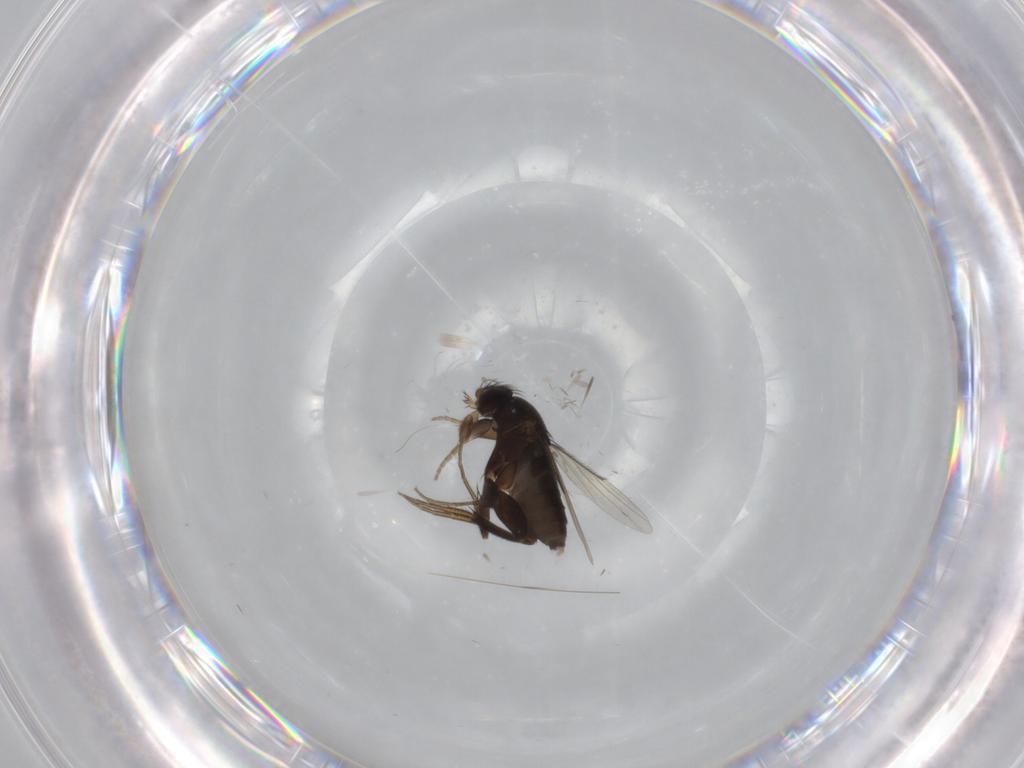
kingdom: Animalia
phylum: Arthropoda
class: Insecta
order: Diptera
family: Cecidomyiidae
